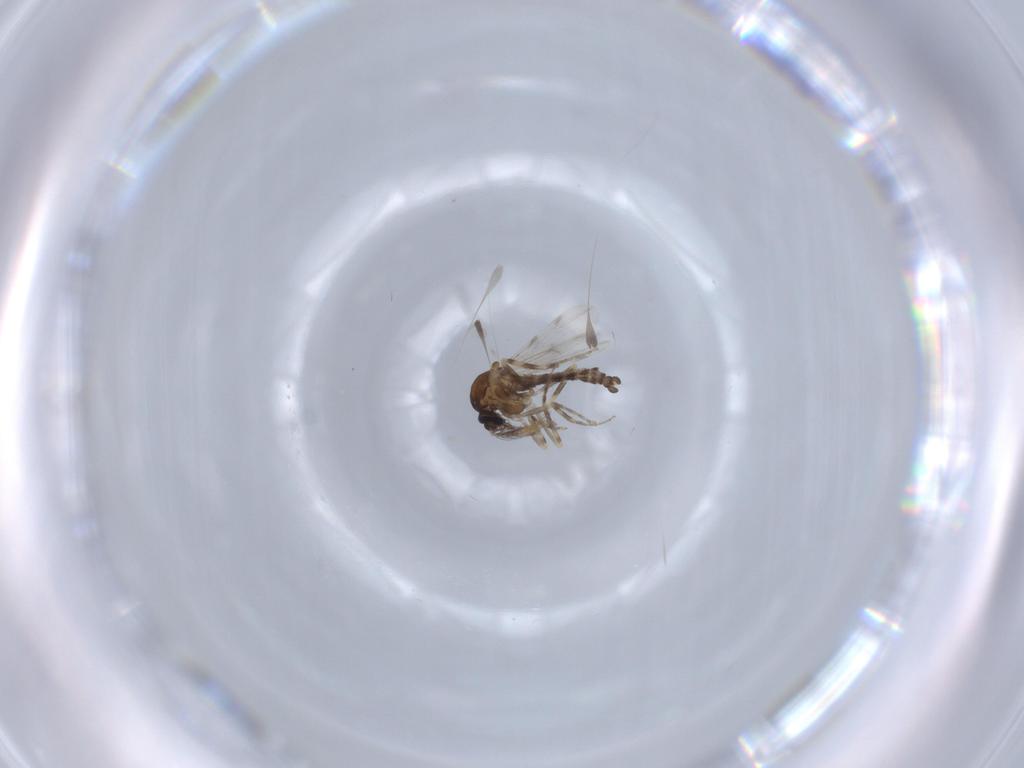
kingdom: Animalia
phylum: Arthropoda
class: Insecta
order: Diptera
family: Ceratopogonidae
